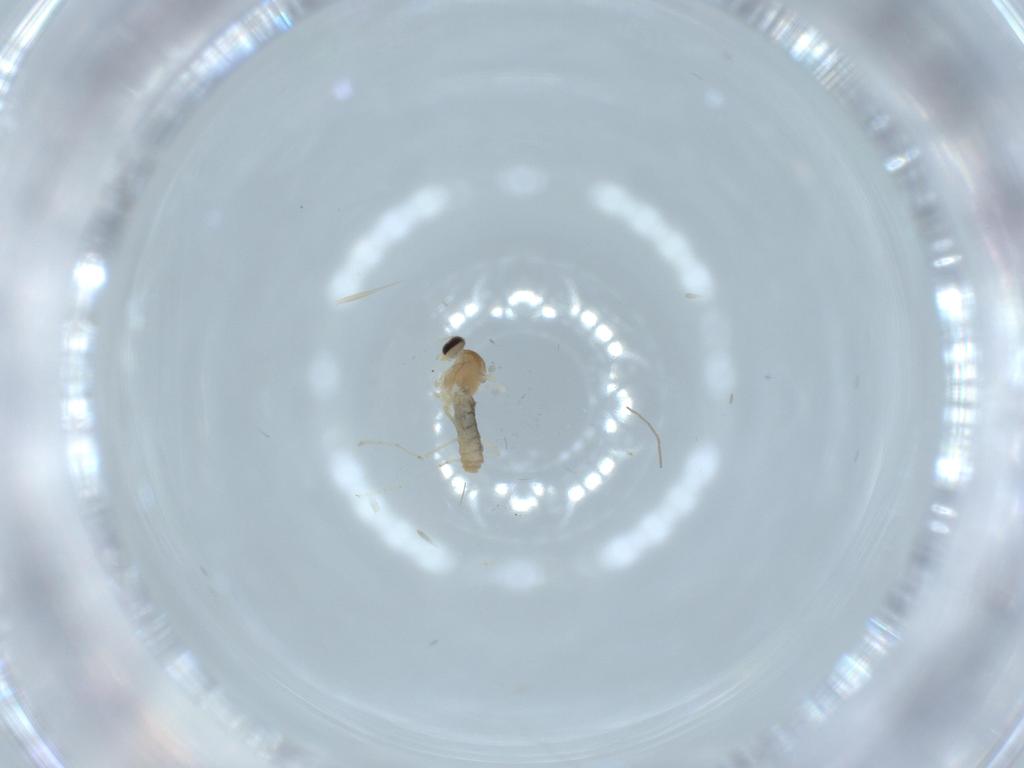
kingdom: Animalia
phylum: Arthropoda
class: Insecta
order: Diptera
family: Cecidomyiidae
